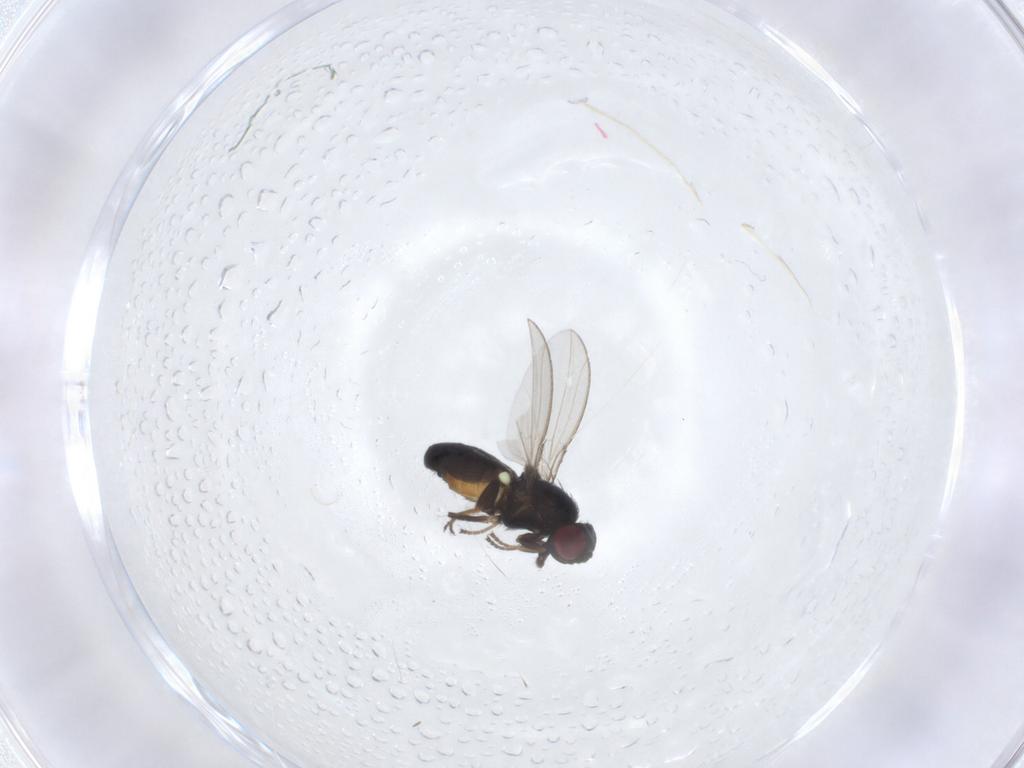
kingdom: Animalia
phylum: Arthropoda
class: Insecta
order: Diptera
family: Carnidae
